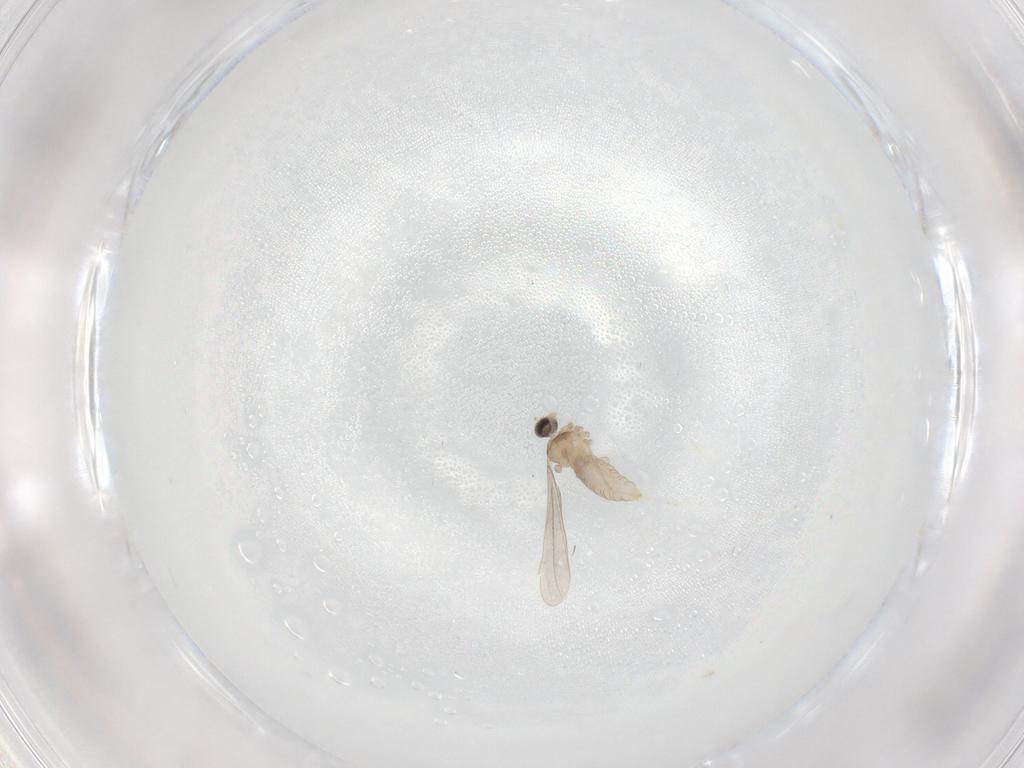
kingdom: Animalia
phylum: Arthropoda
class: Insecta
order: Diptera
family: Cecidomyiidae
